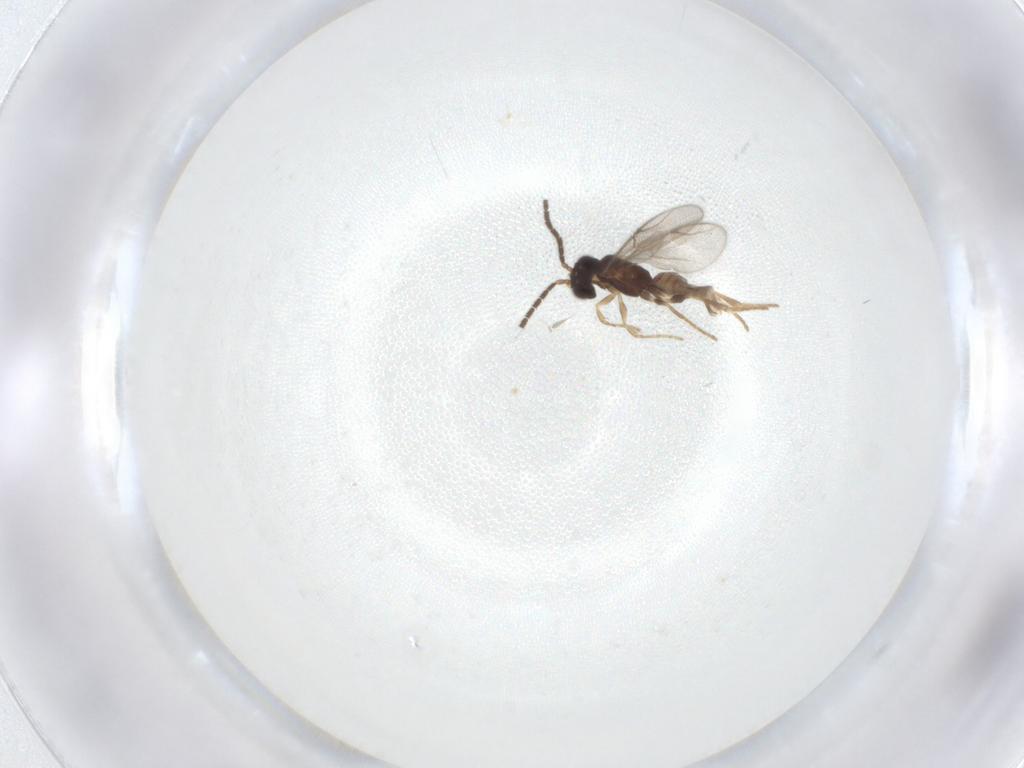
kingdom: Animalia
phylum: Arthropoda
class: Insecta
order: Hymenoptera
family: Dryinidae
